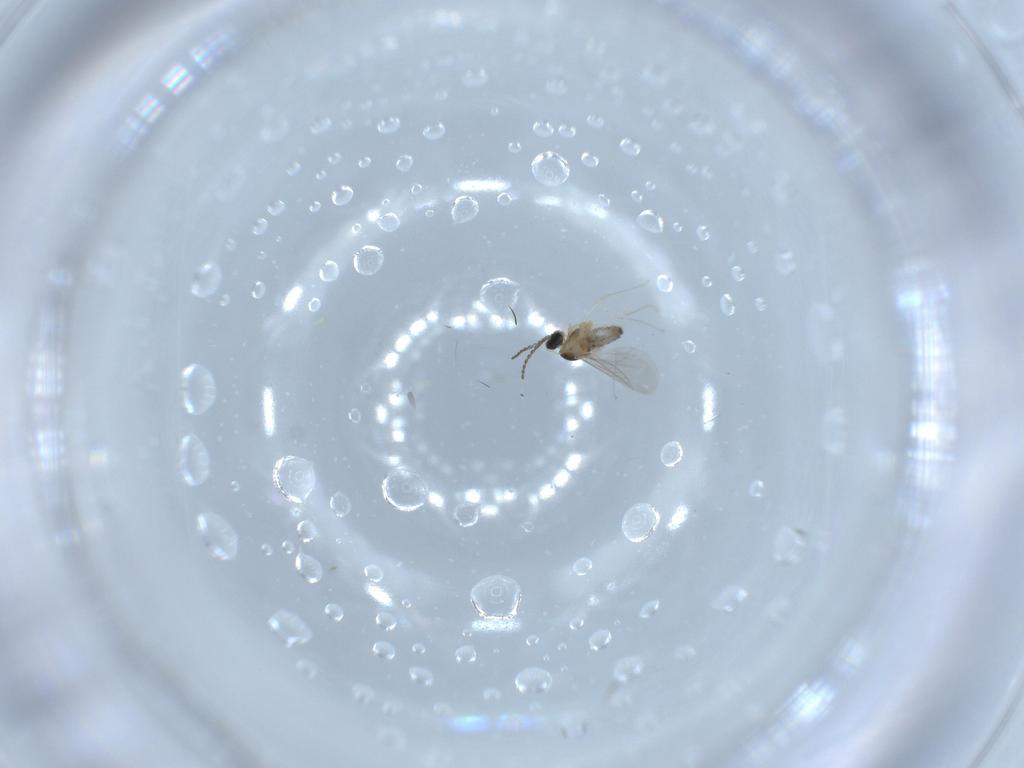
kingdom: Animalia
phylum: Arthropoda
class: Insecta
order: Diptera
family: Cecidomyiidae
